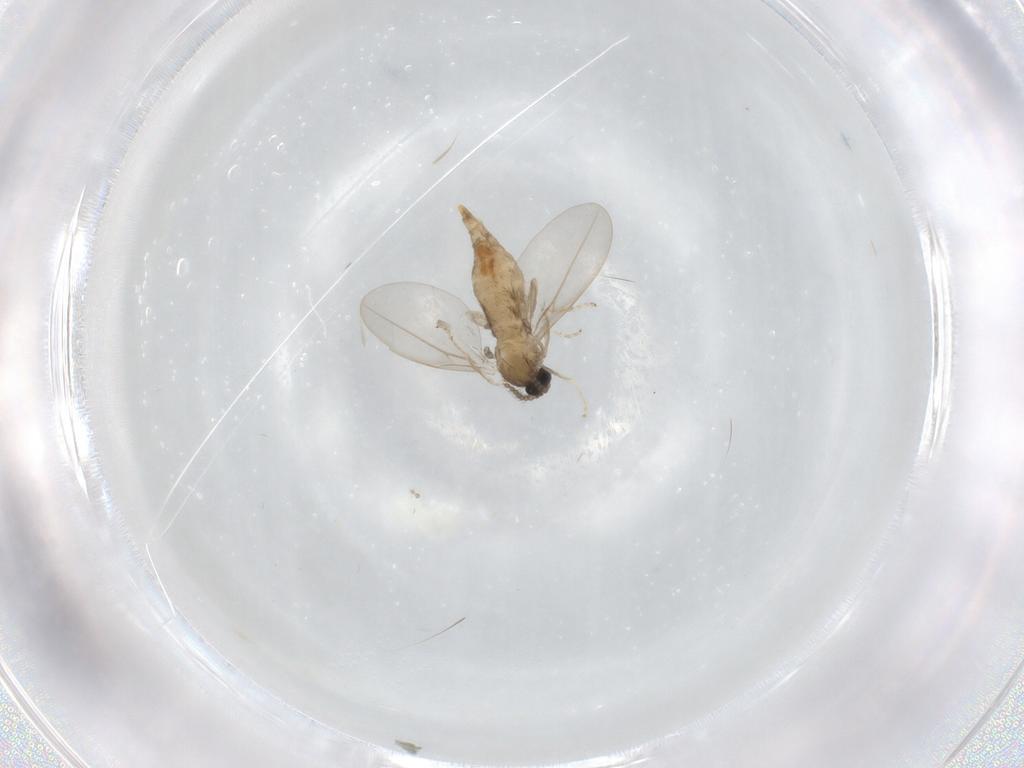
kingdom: Animalia
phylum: Arthropoda
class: Insecta
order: Diptera
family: Cecidomyiidae
